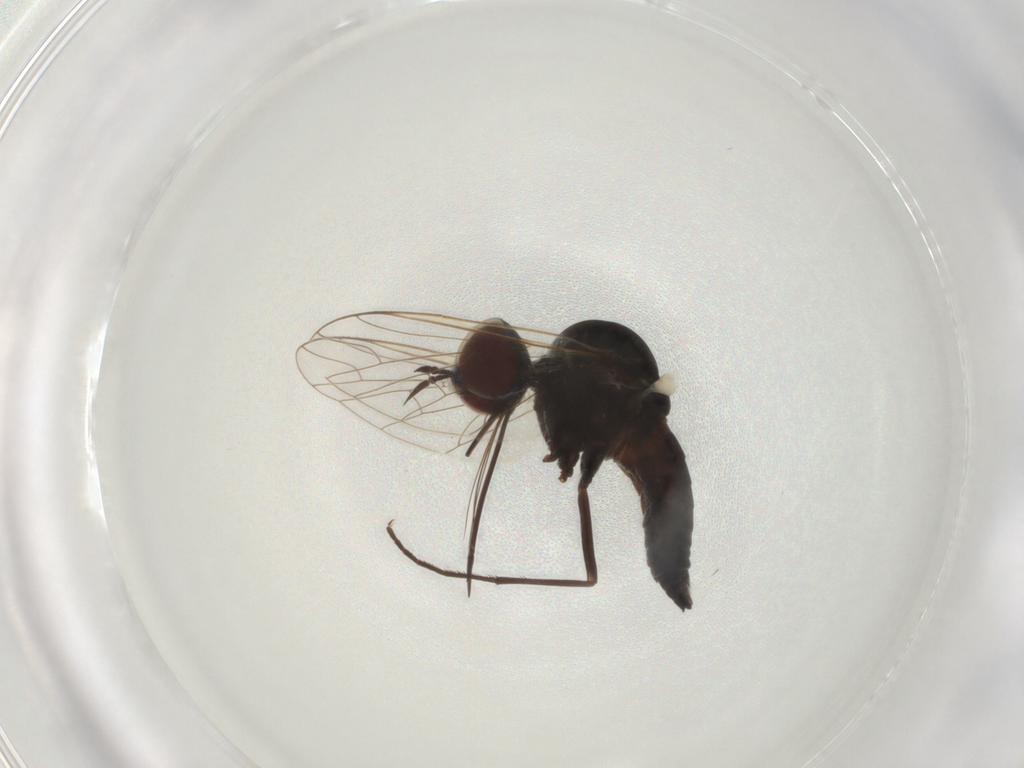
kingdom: Animalia
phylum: Arthropoda
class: Insecta
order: Diptera
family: Bombyliidae
